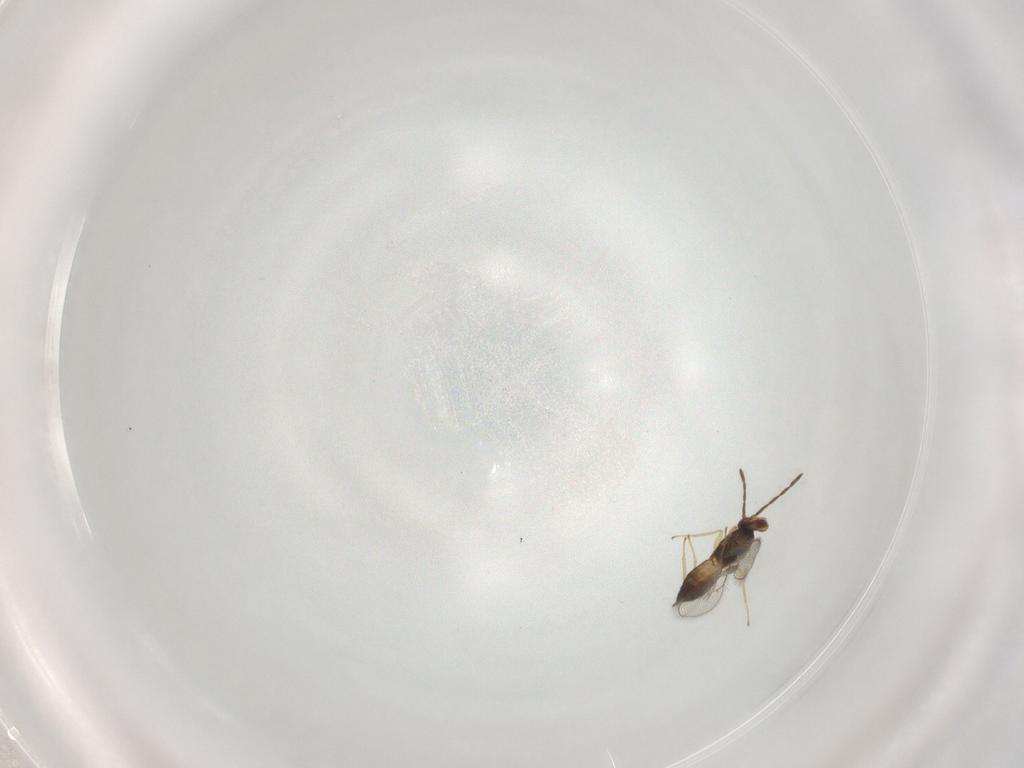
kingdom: Animalia
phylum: Arthropoda
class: Insecta
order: Hymenoptera
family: Eulophidae
